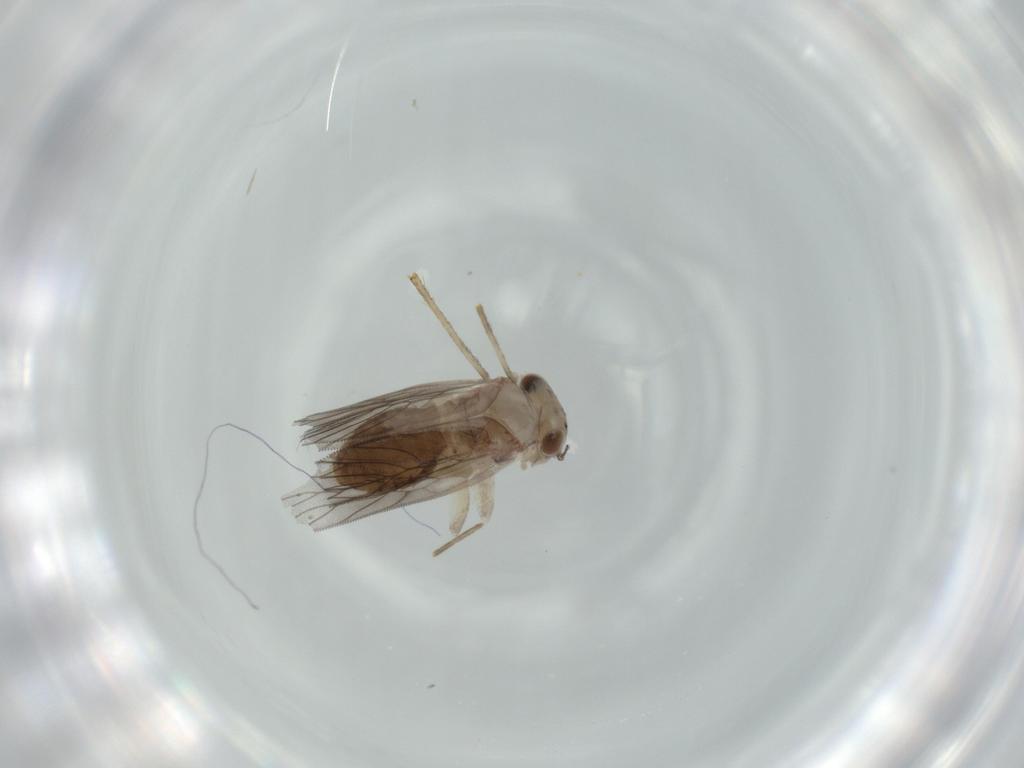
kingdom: Animalia
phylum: Arthropoda
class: Insecta
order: Psocodea
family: Lepidopsocidae
